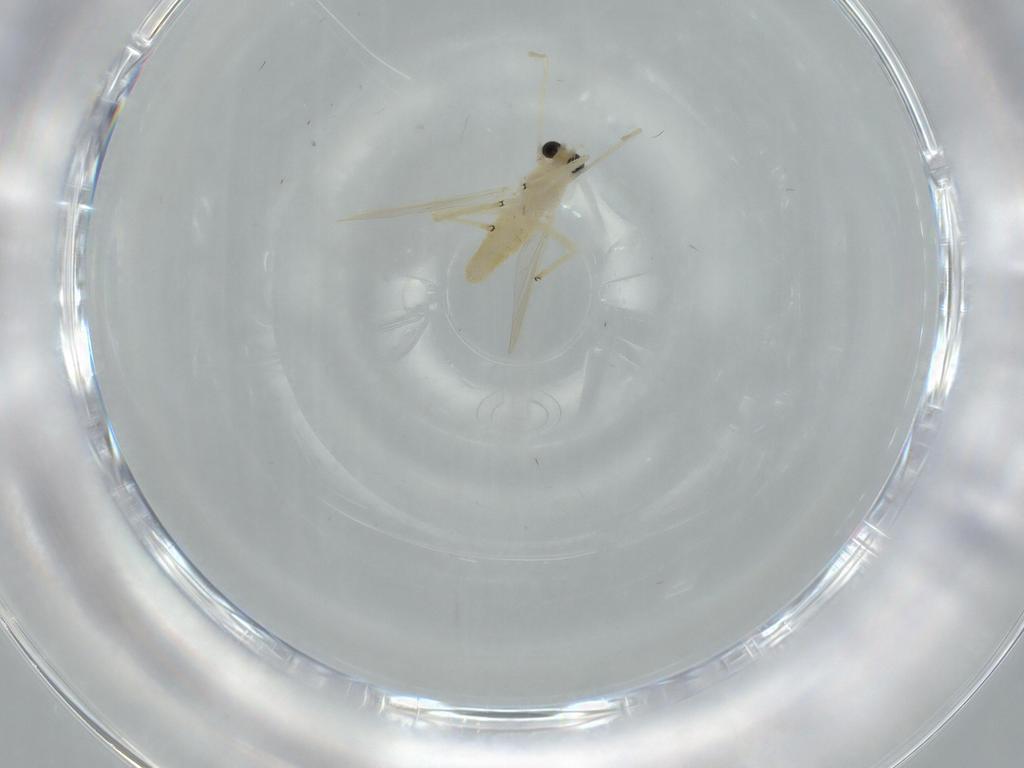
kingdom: Animalia
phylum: Arthropoda
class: Insecta
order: Diptera
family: Chironomidae
